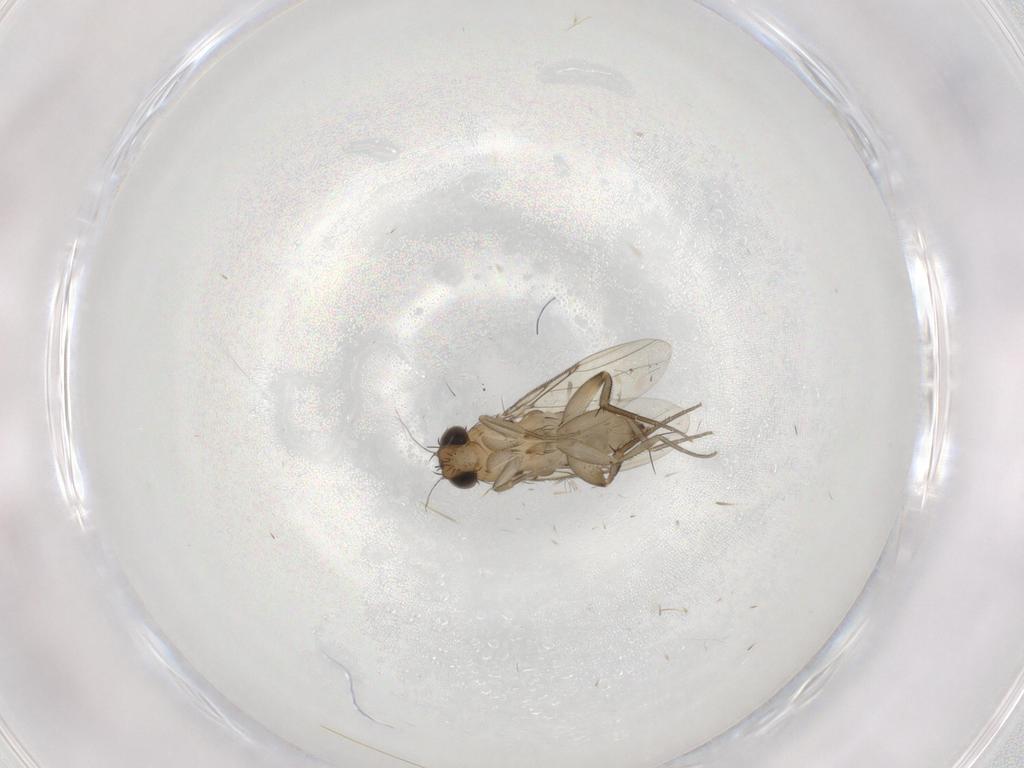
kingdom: Animalia
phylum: Arthropoda
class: Insecta
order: Diptera
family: Phoridae
